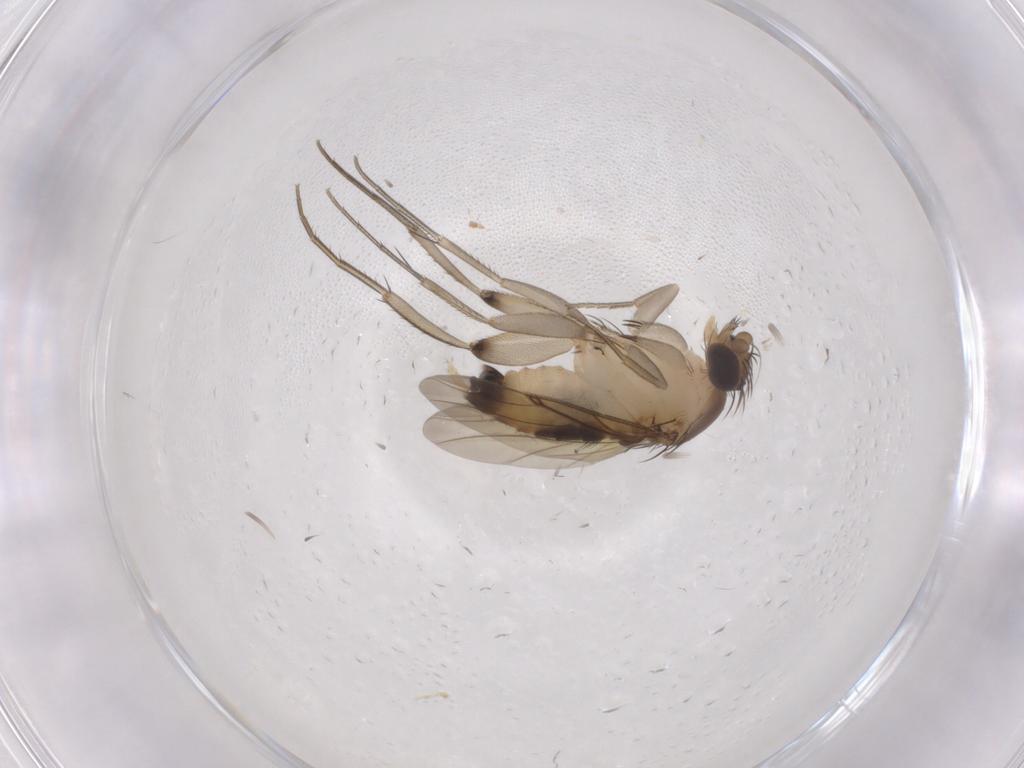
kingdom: Animalia
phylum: Arthropoda
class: Insecta
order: Diptera
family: Phoridae
